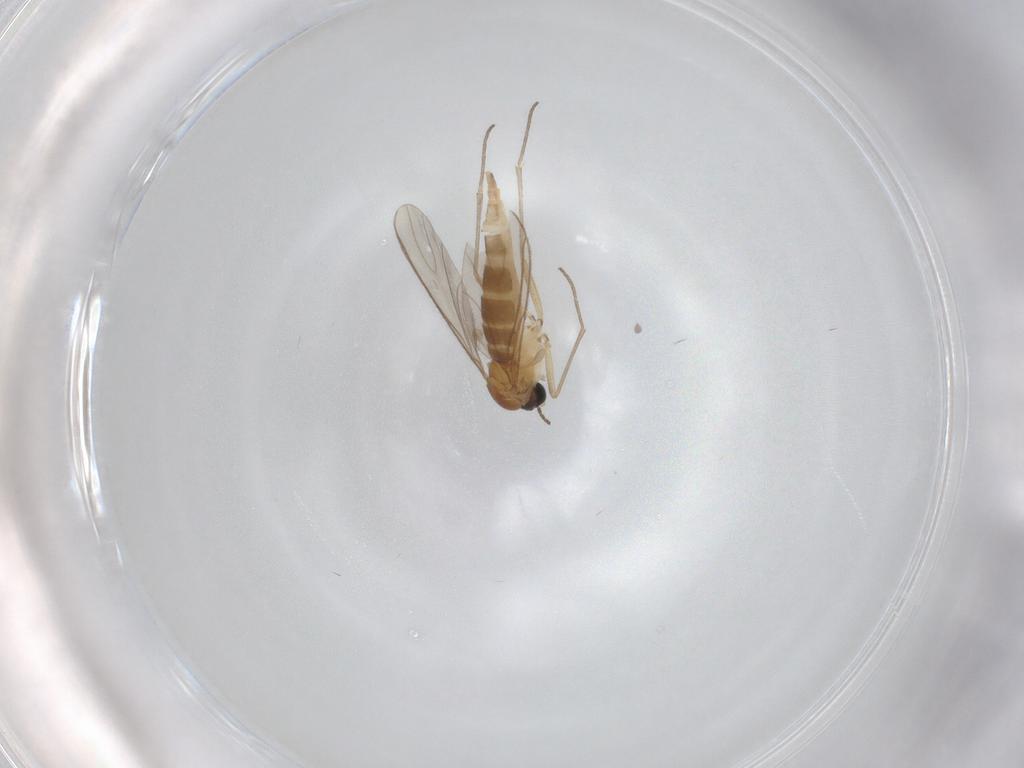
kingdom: Animalia
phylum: Arthropoda
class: Insecta
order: Diptera
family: Sciaridae
